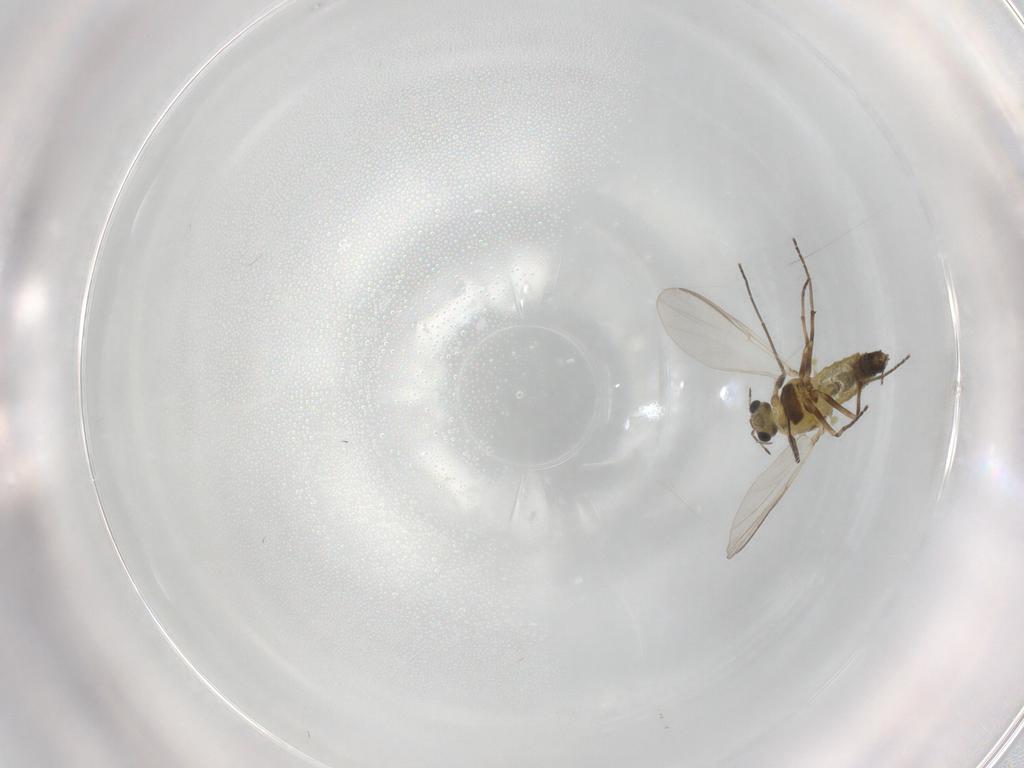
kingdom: Animalia
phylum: Arthropoda
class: Insecta
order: Diptera
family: Chironomidae
